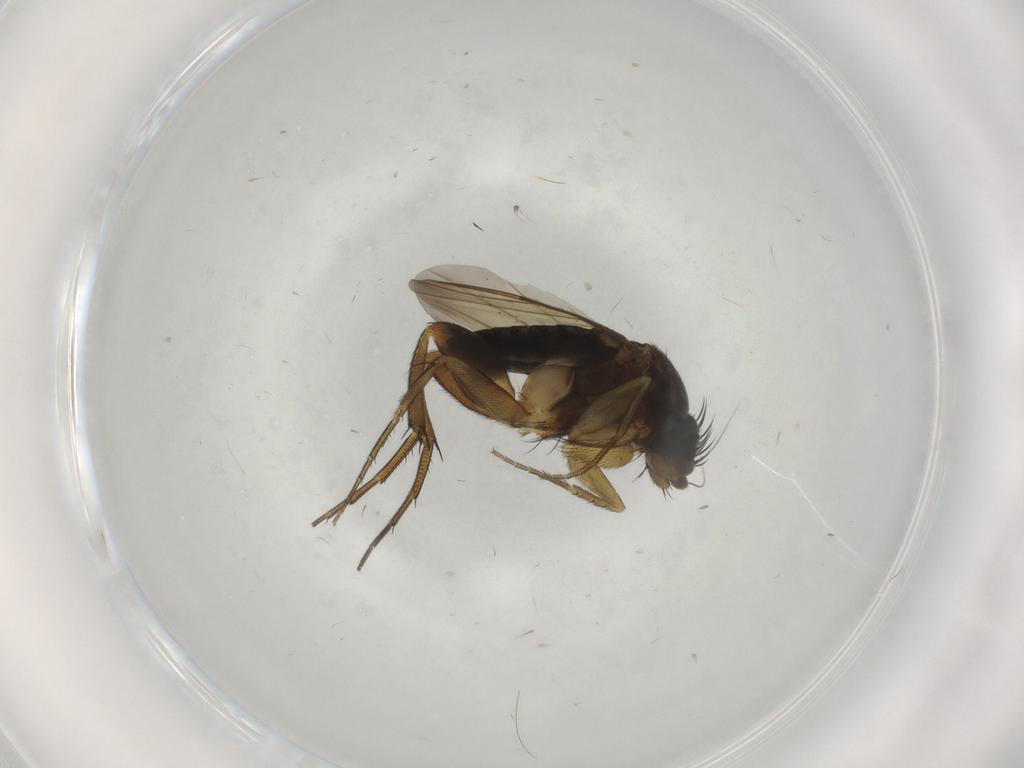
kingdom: Animalia
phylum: Arthropoda
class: Insecta
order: Diptera
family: Phoridae
